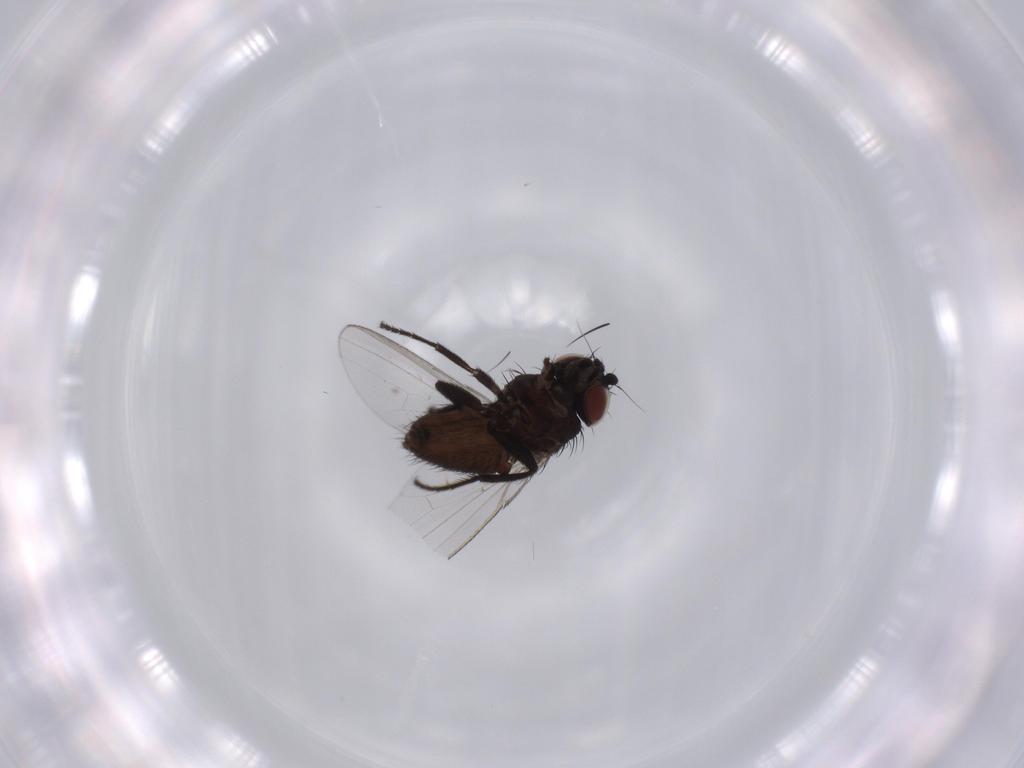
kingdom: Animalia
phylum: Arthropoda
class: Insecta
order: Diptera
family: Milichiidae
